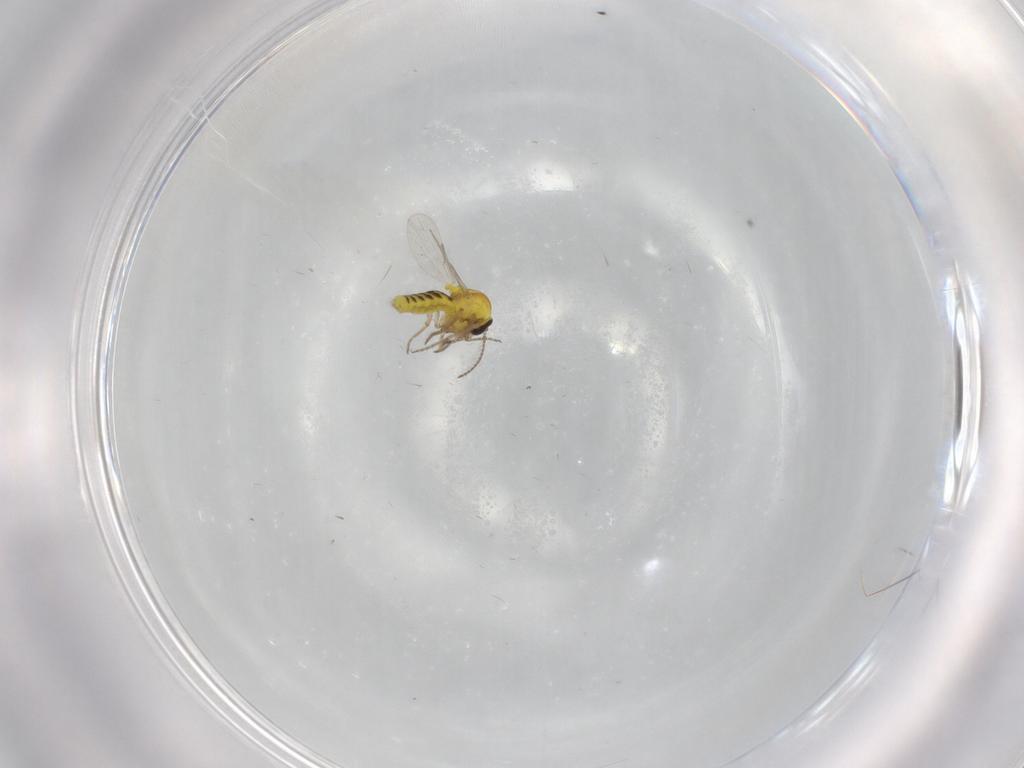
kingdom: Animalia
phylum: Arthropoda
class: Insecta
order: Diptera
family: Ceratopogonidae
